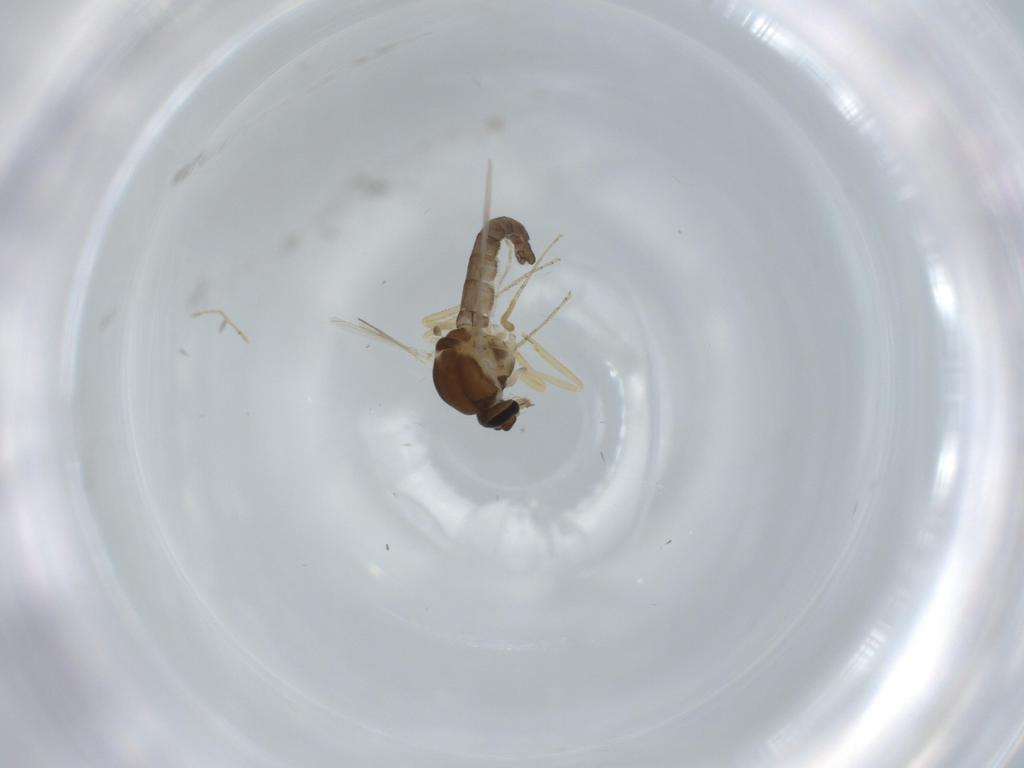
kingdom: Animalia
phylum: Arthropoda
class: Insecta
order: Diptera
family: Ceratopogonidae
